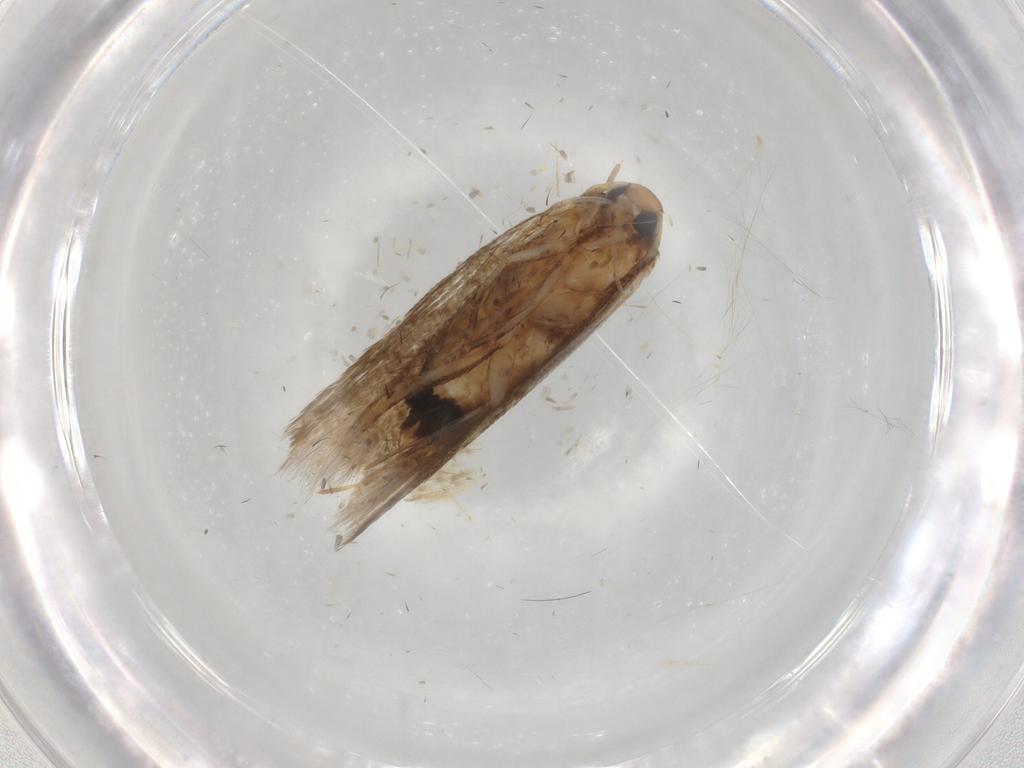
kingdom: Animalia
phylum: Arthropoda
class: Insecta
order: Lepidoptera
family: Cosmopterigidae
